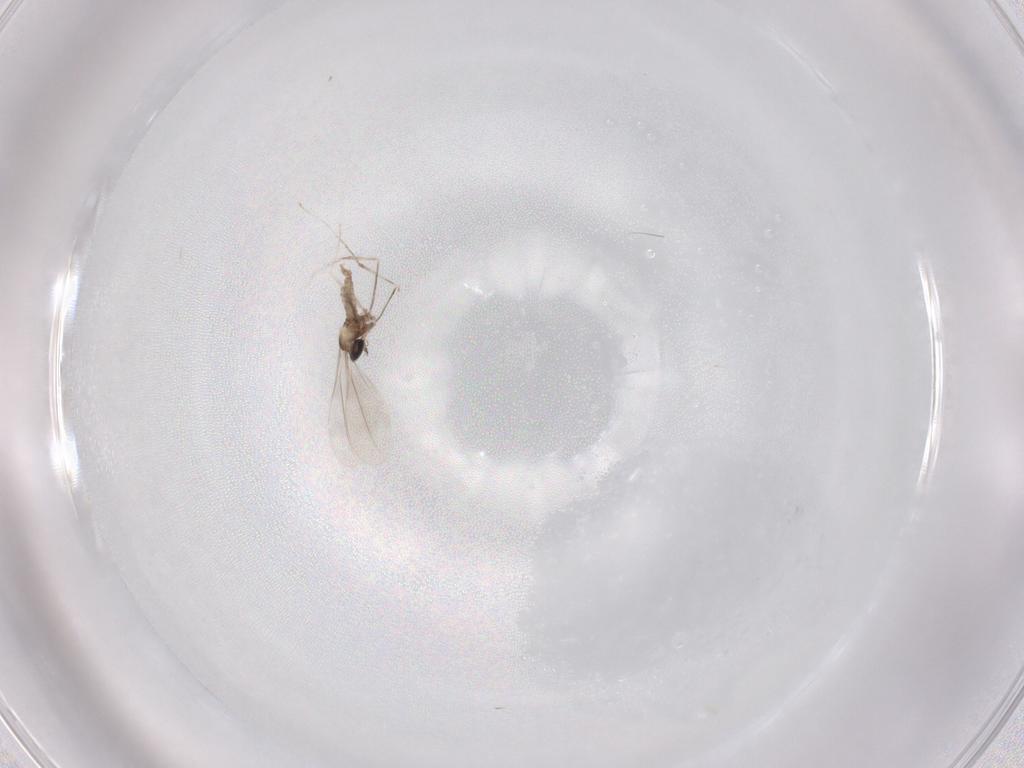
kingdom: Animalia
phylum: Arthropoda
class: Insecta
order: Diptera
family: Cecidomyiidae
